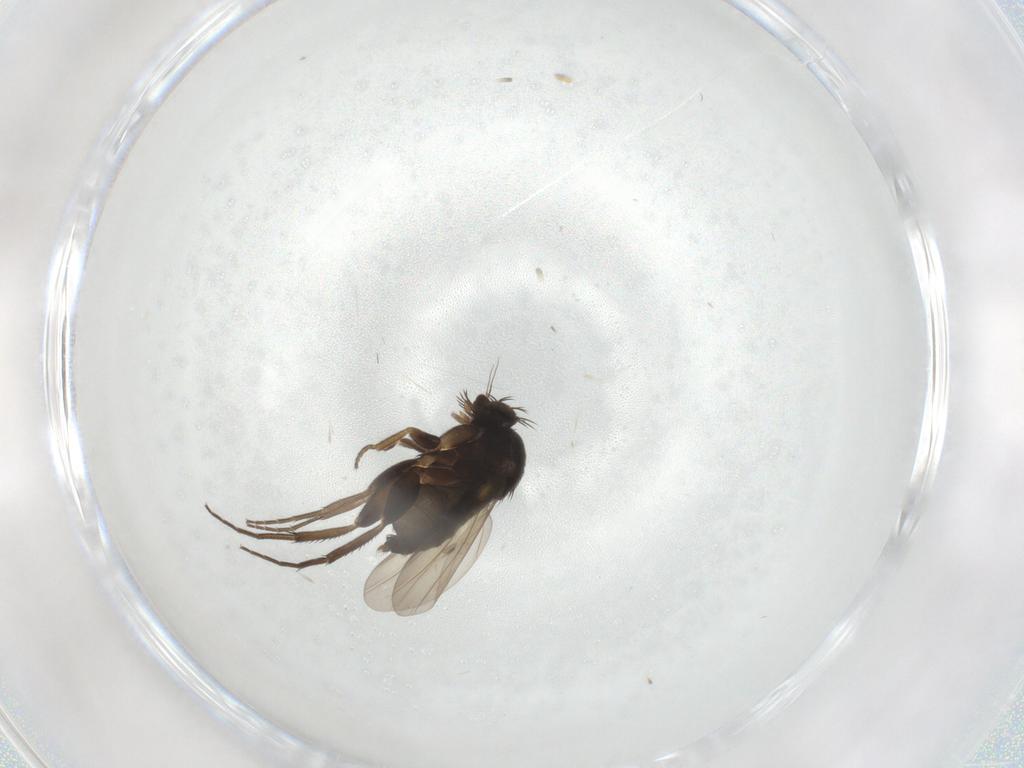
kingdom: Animalia
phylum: Arthropoda
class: Insecta
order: Diptera
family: Phoridae
